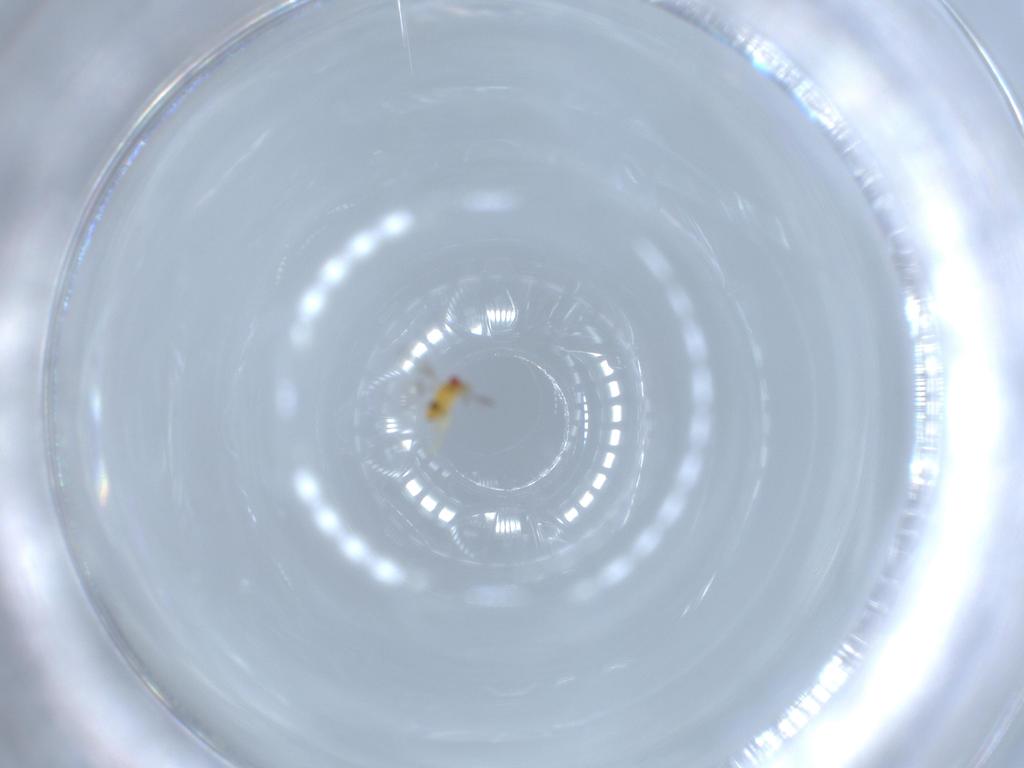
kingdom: Animalia
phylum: Arthropoda
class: Insecta
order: Hymenoptera
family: Trichogrammatidae
